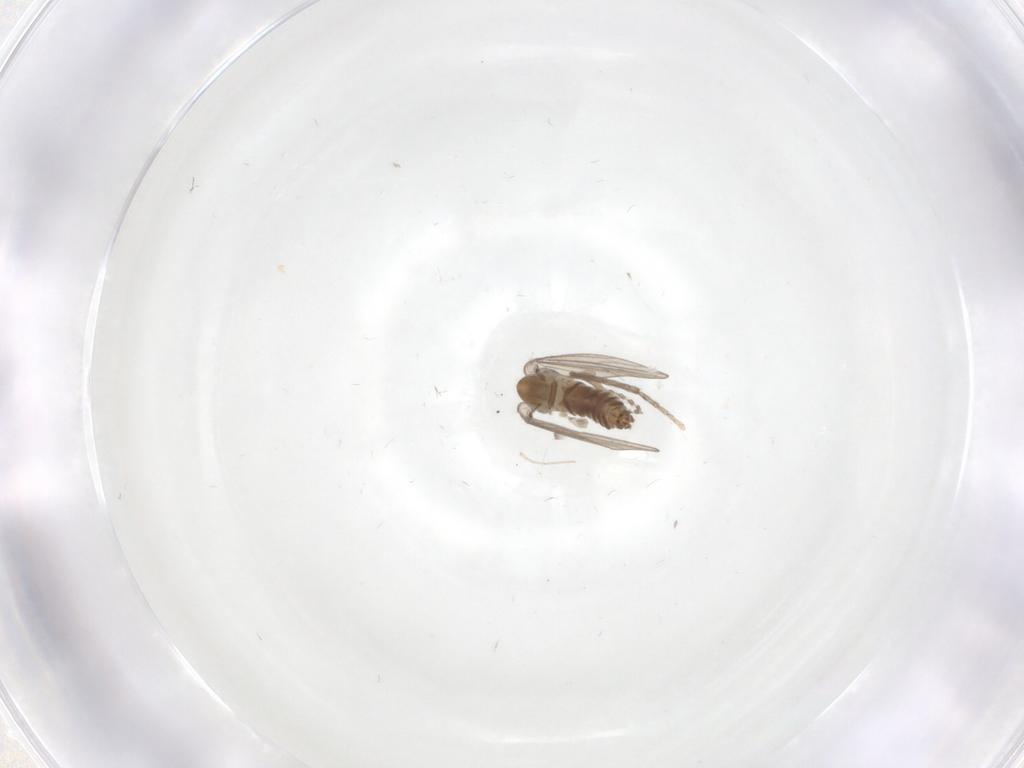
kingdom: Animalia
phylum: Arthropoda
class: Insecta
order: Diptera
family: Psychodidae
